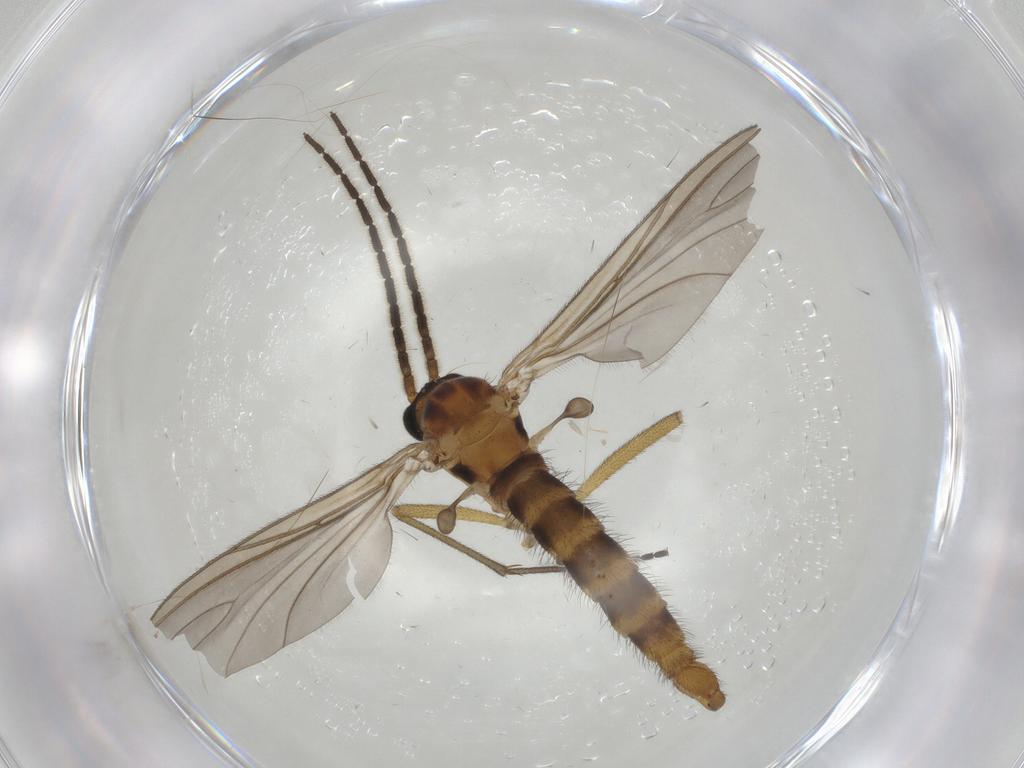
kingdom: Animalia
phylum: Arthropoda
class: Insecta
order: Diptera
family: Sciaridae
